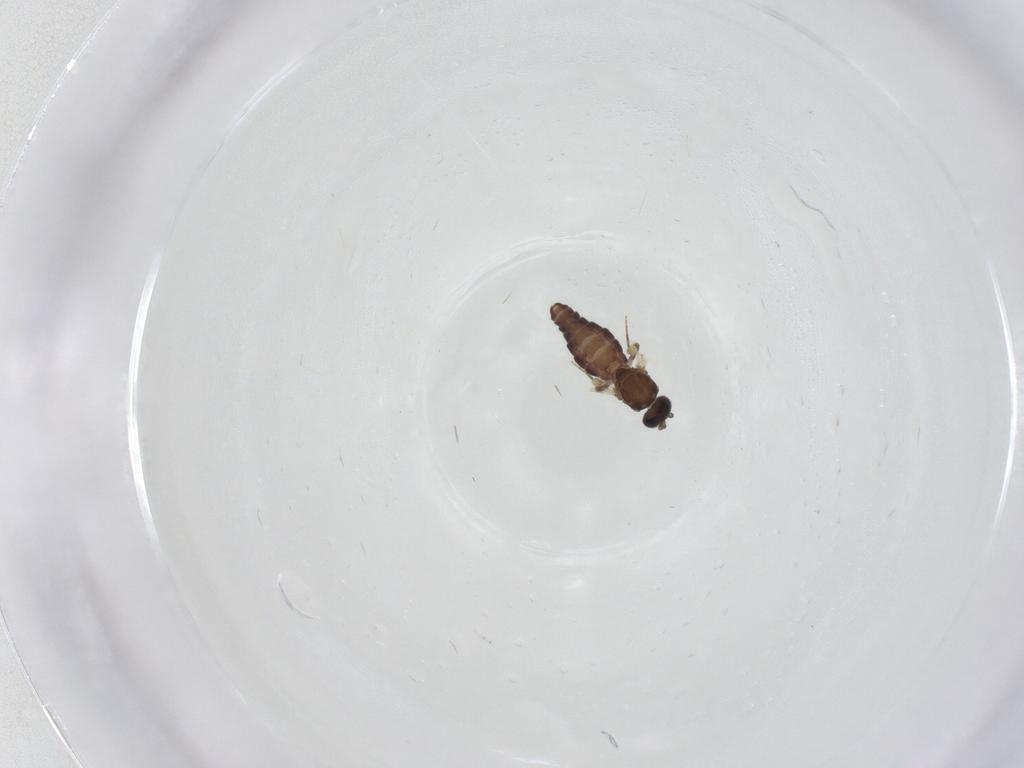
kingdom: Animalia
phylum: Arthropoda
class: Insecta
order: Diptera
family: Ceratopogonidae
